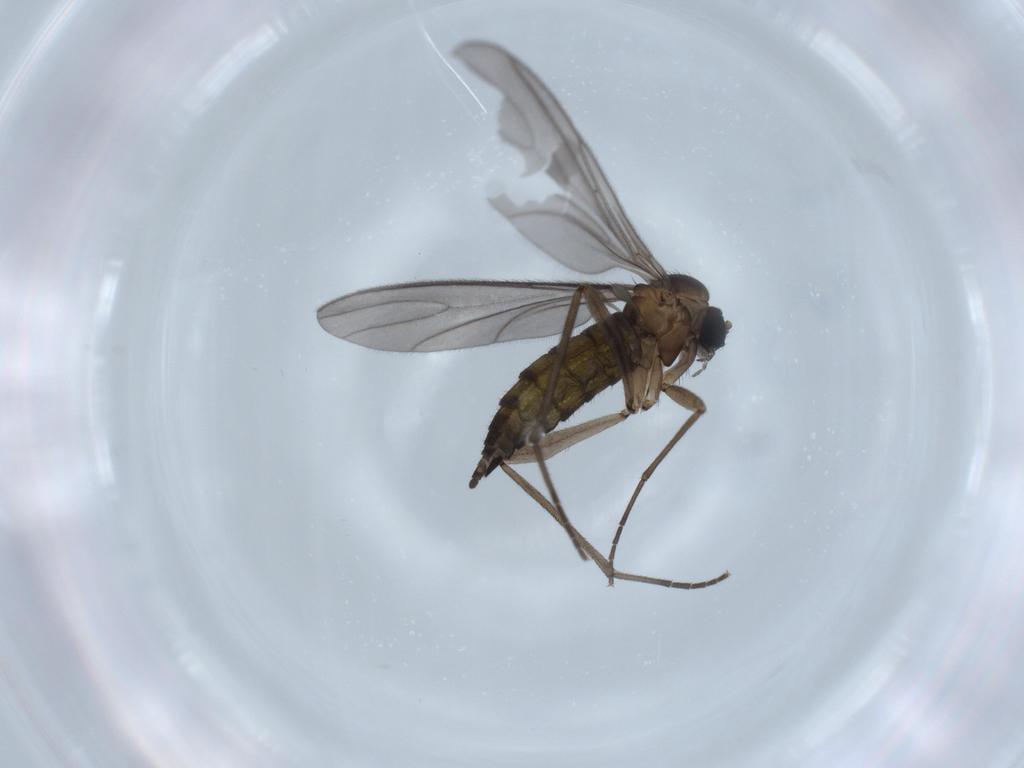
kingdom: Animalia
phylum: Arthropoda
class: Insecta
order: Diptera
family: Sciaridae
